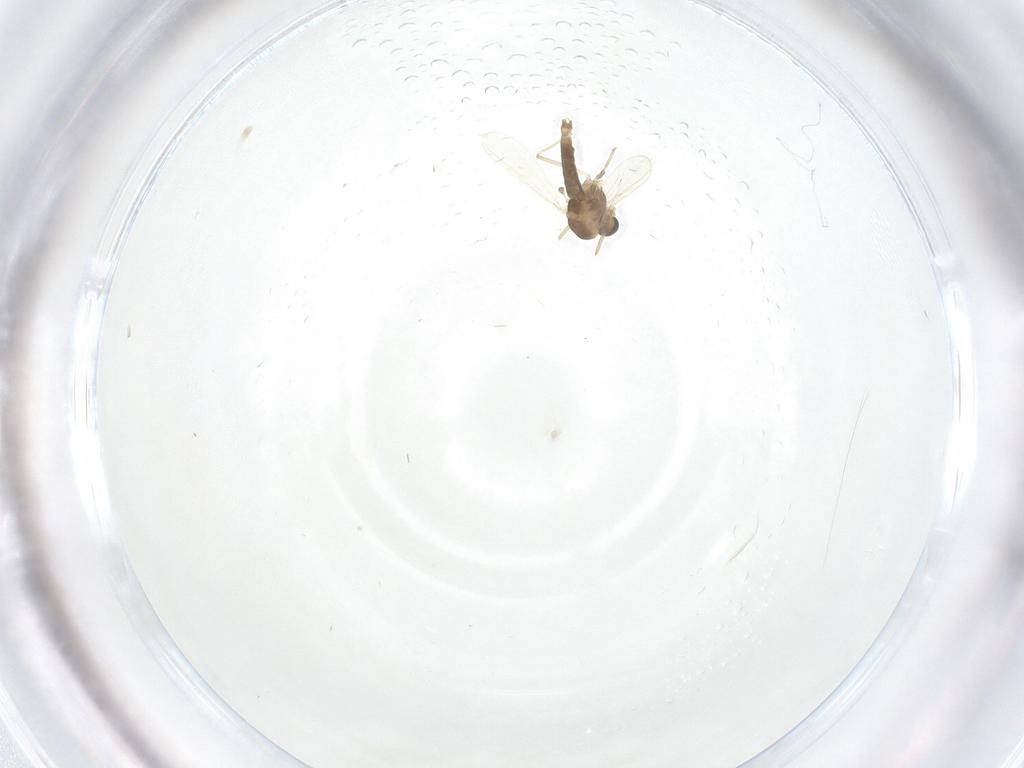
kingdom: Animalia
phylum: Arthropoda
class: Insecta
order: Diptera
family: Chironomidae
